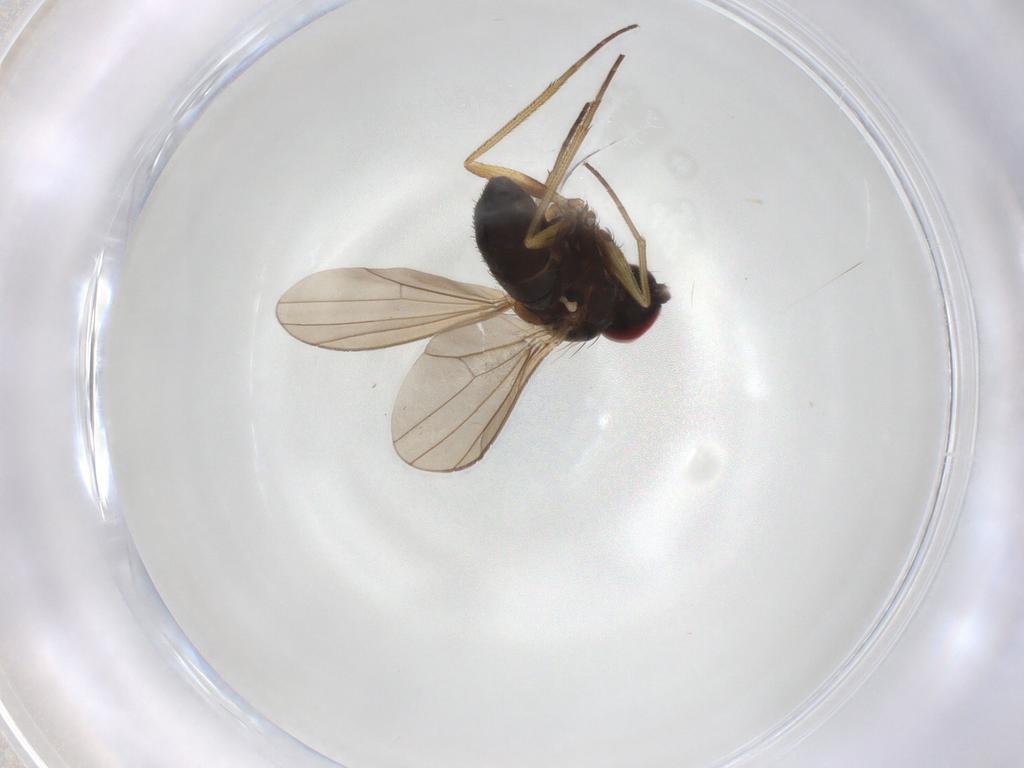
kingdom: Animalia
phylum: Arthropoda
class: Insecta
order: Diptera
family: Dolichopodidae
